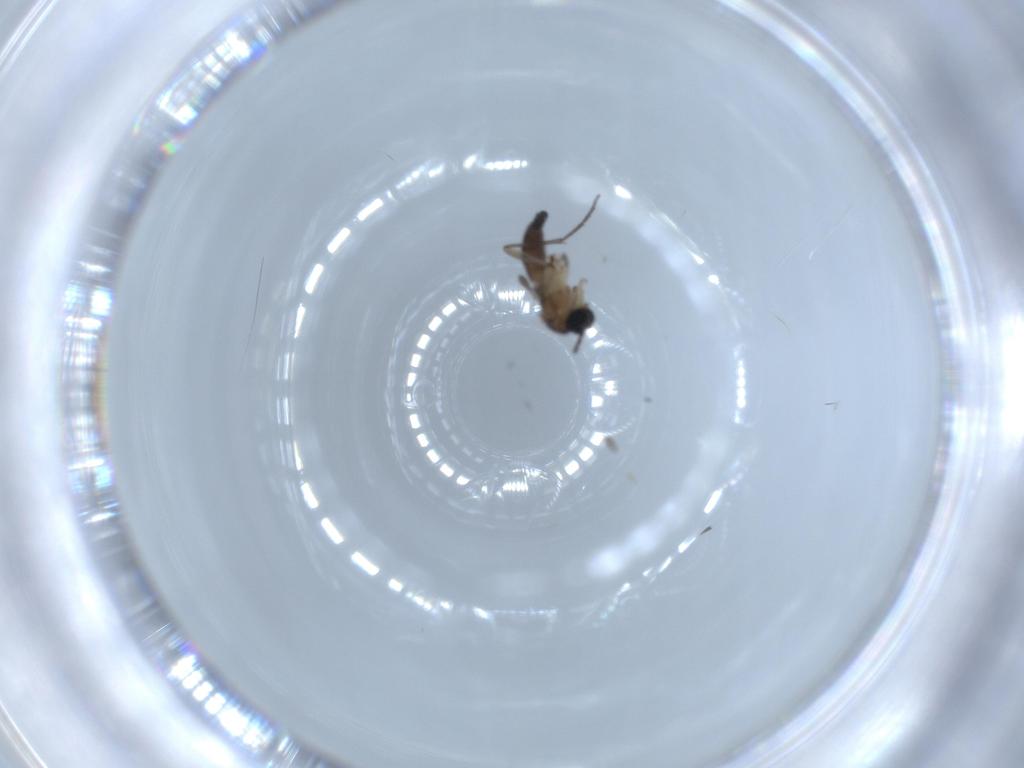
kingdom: Animalia
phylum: Arthropoda
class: Insecta
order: Diptera
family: Sciaridae
